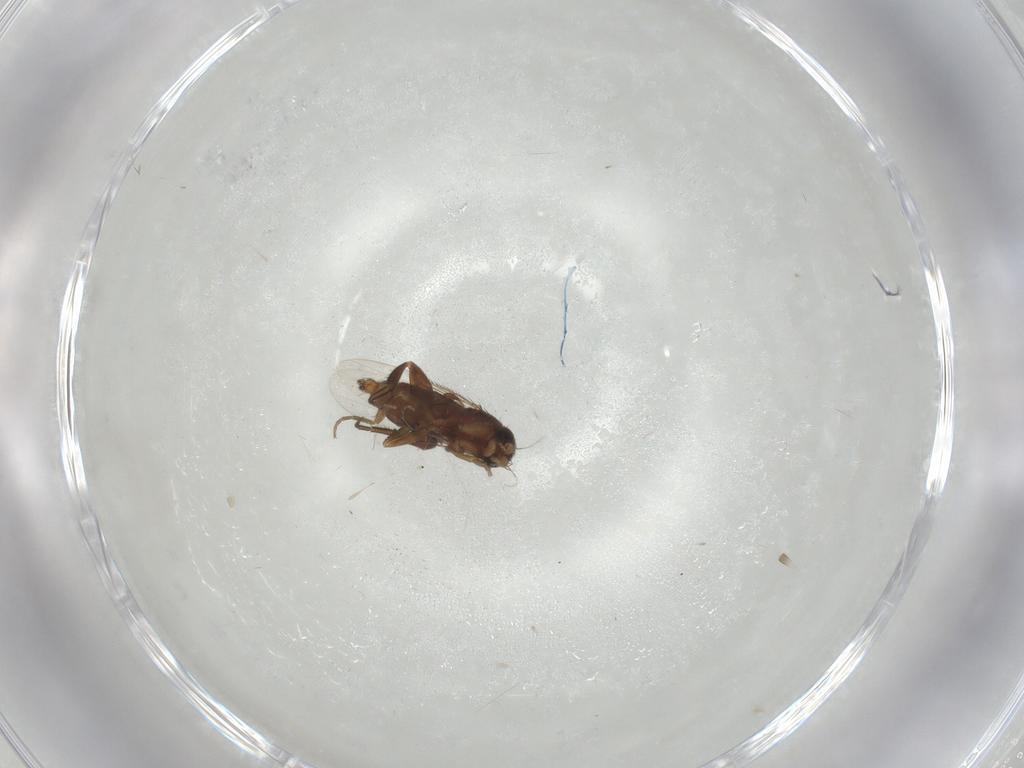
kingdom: Animalia
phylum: Arthropoda
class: Insecta
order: Diptera
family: Phoridae
